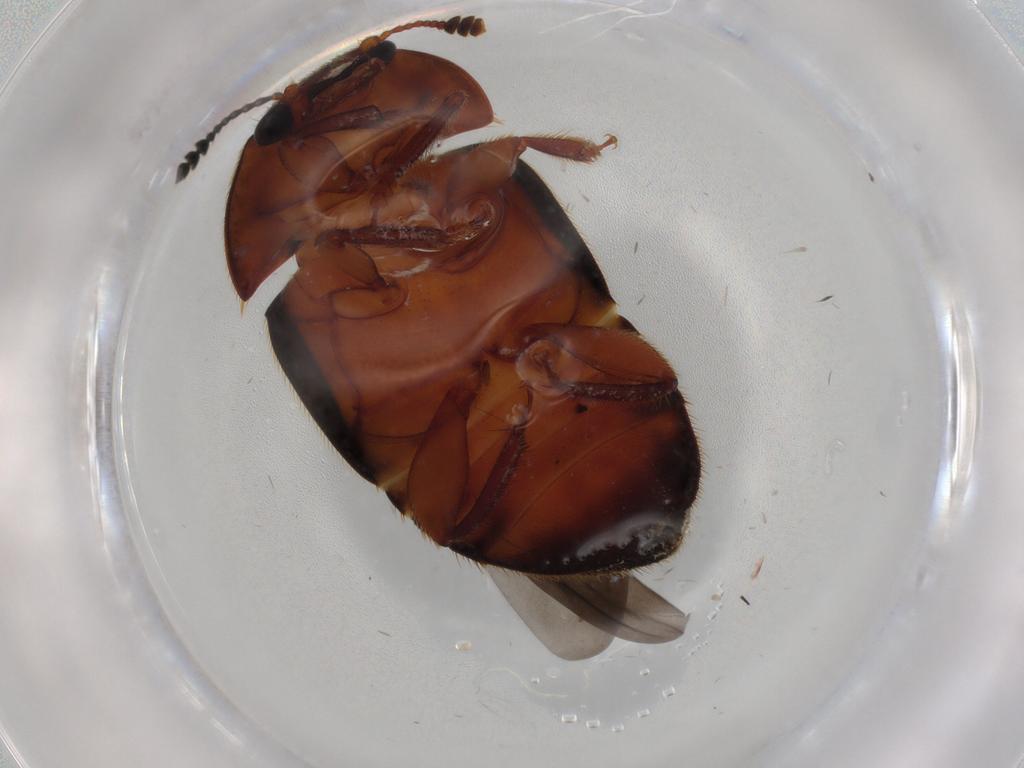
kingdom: Animalia
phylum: Arthropoda
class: Insecta
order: Coleoptera
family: Nitidulidae
